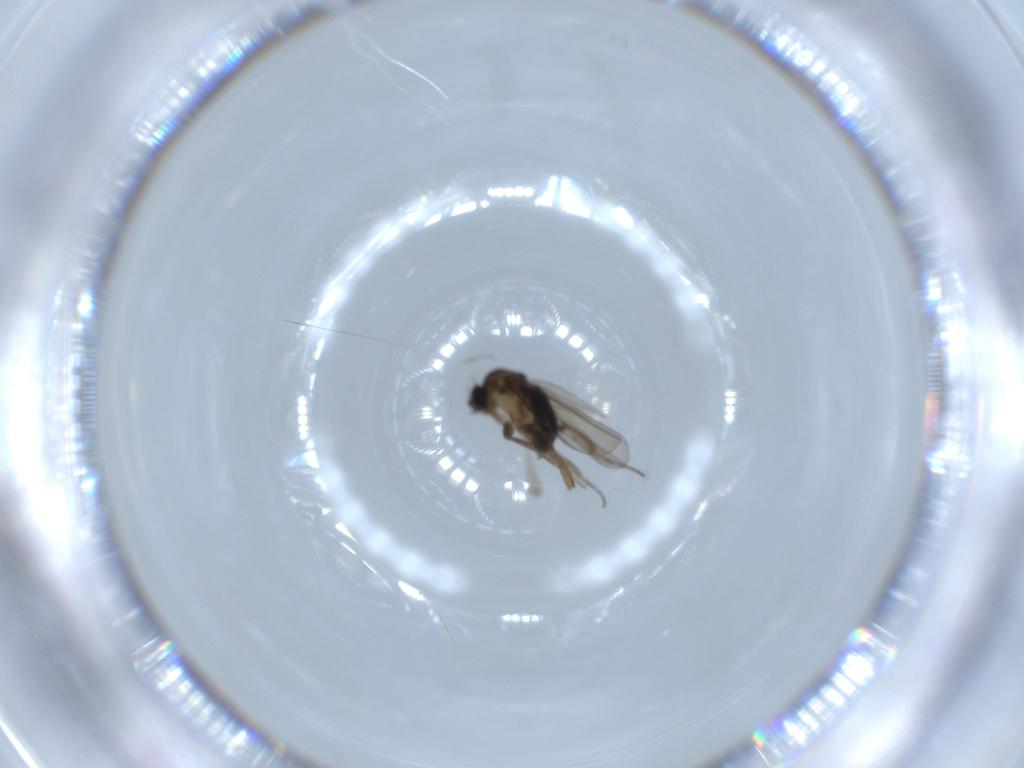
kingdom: Animalia
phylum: Arthropoda
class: Insecta
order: Diptera
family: Phoridae
